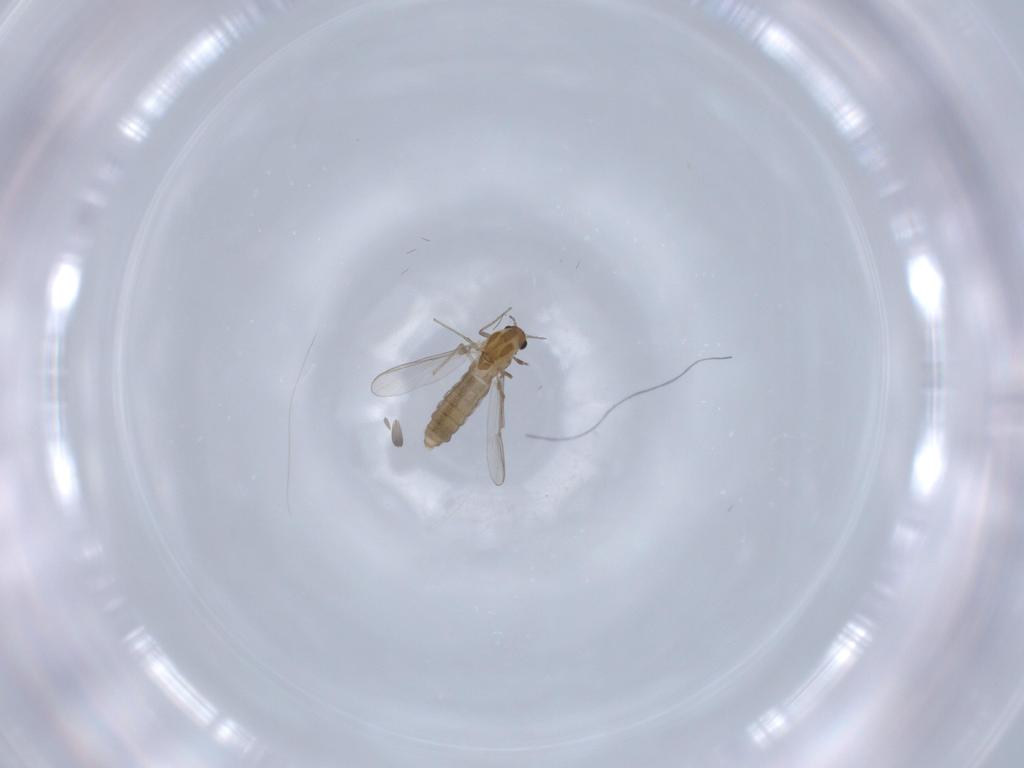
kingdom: Animalia
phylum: Arthropoda
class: Insecta
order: Diptera
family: Chironomidae
